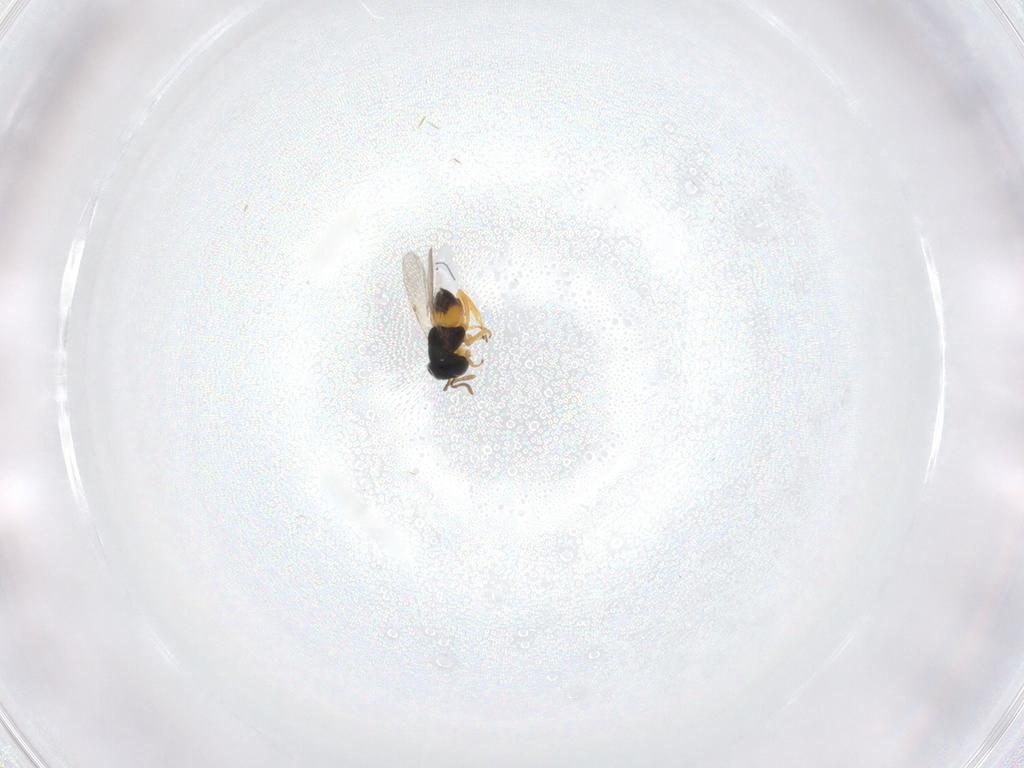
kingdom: Animalia
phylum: Arthropoda
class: Insecta
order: Hymenoptera
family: Encyrtidae
